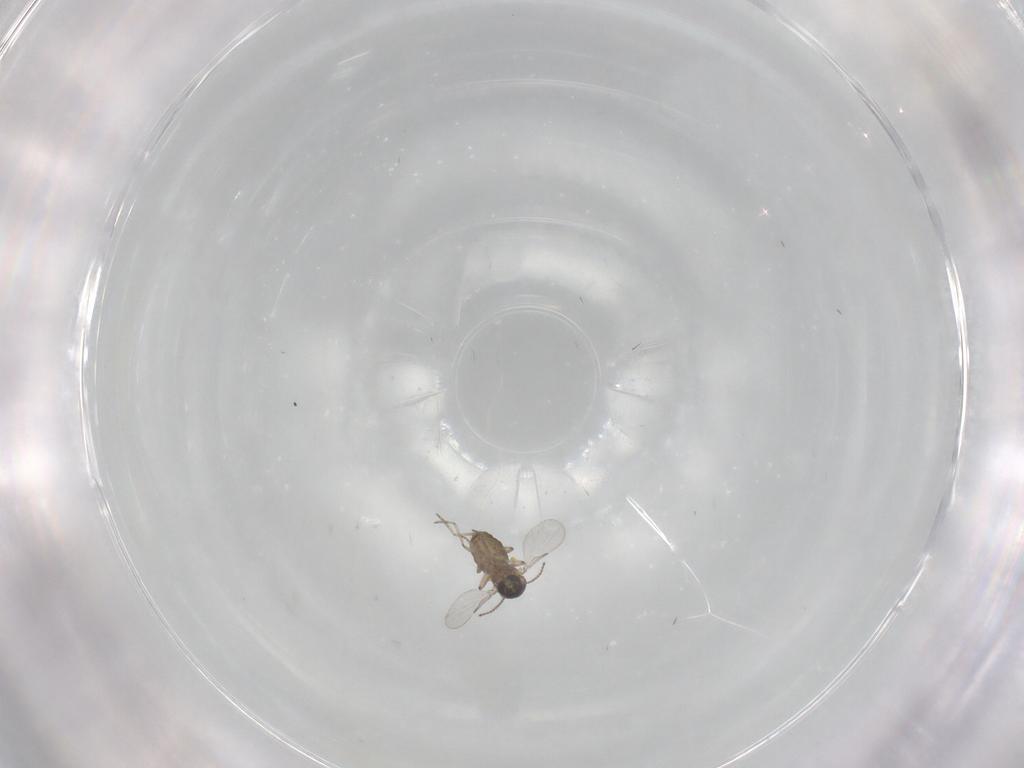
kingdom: Animalia
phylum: Arthropoda
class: Insecta
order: Diptera
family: Ceratopogonidae
